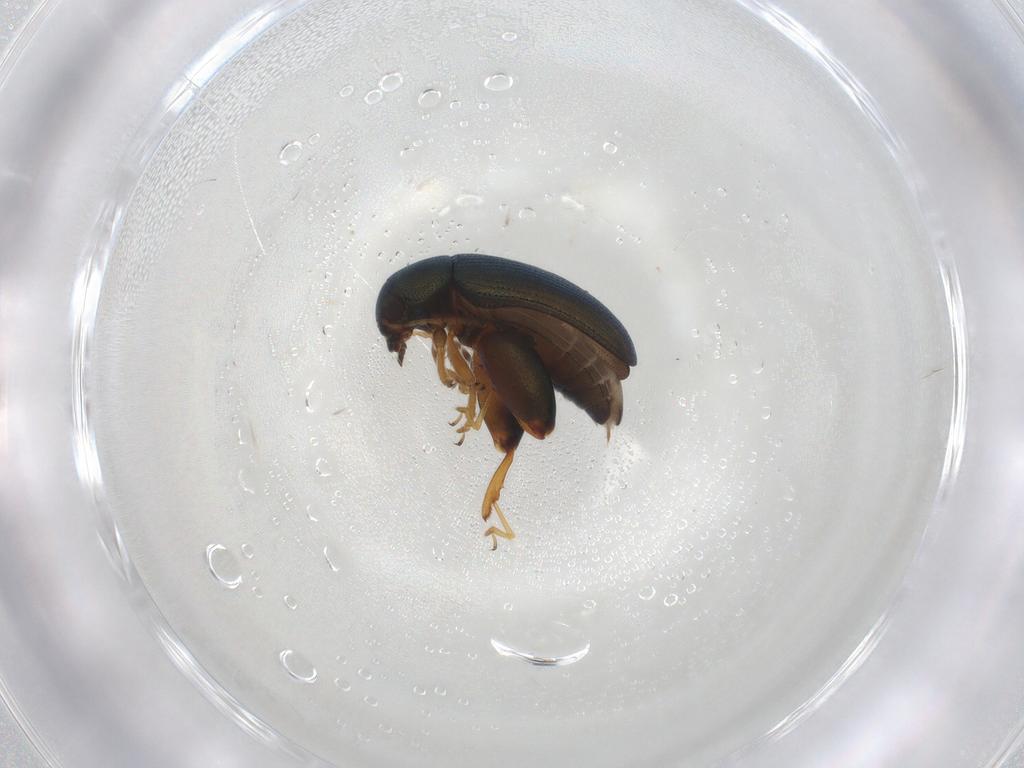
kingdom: Animalia
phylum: Arthropoda
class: Insecta
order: Coleoptera
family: Chrysomelidae
